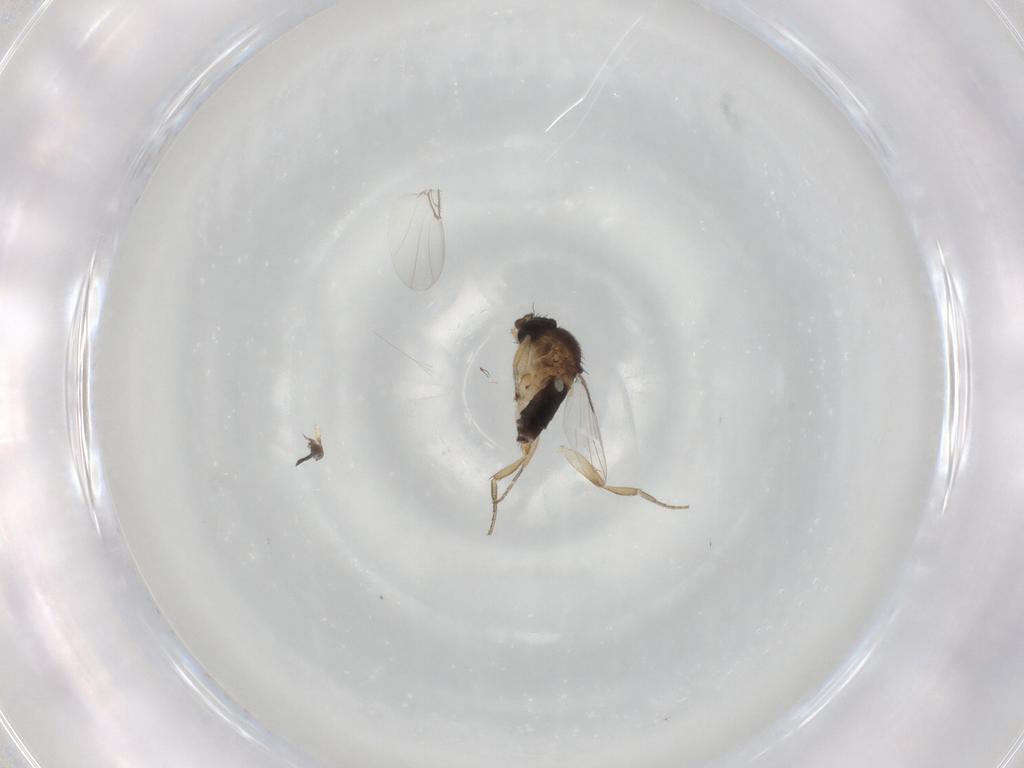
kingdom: Animalia
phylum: Arthropoda
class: Insecta
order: Diptera
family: Phoridae
